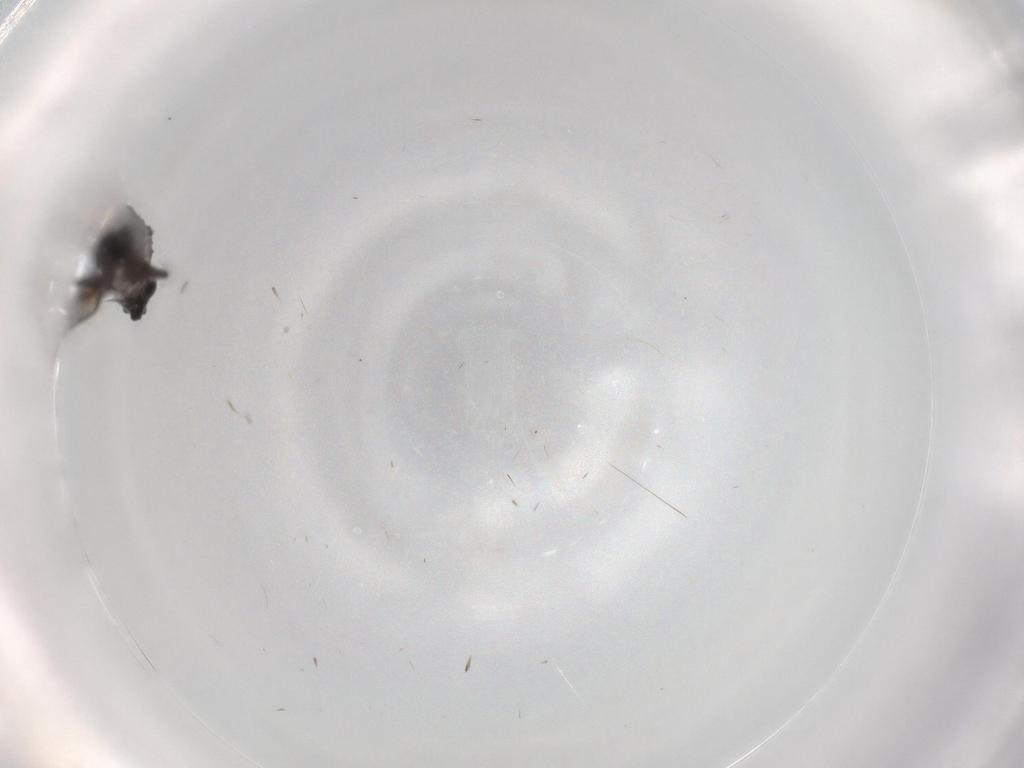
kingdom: Animalia
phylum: Arthropoda
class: Insecta
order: Diptera
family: Phoridae
